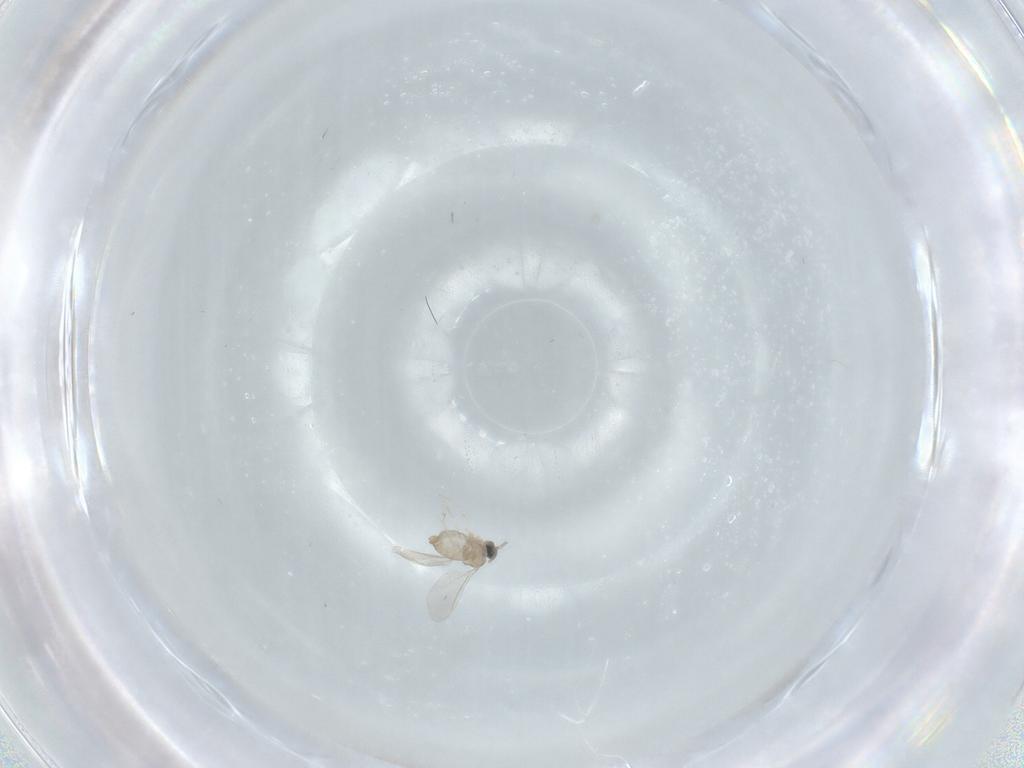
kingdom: Animalia
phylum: Arthropoda
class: Insecta
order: Diptera
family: Cecidomyiidae
